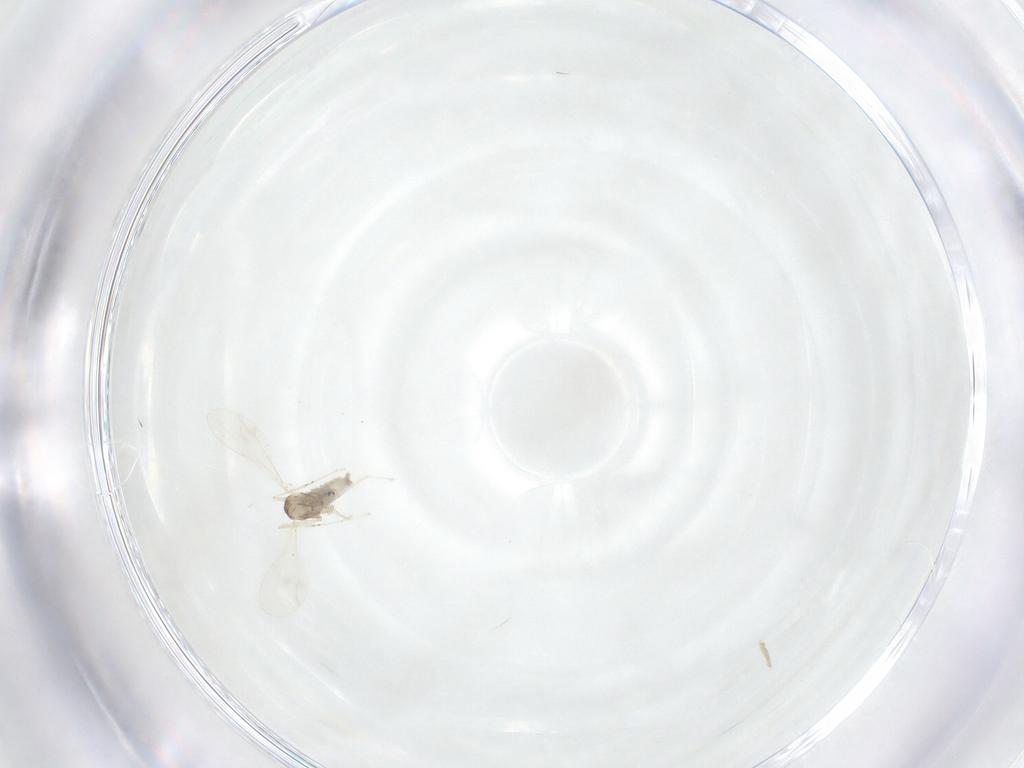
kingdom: Animalia
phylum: Arthropoda
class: Insecta
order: Diptera
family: Chironomidae
